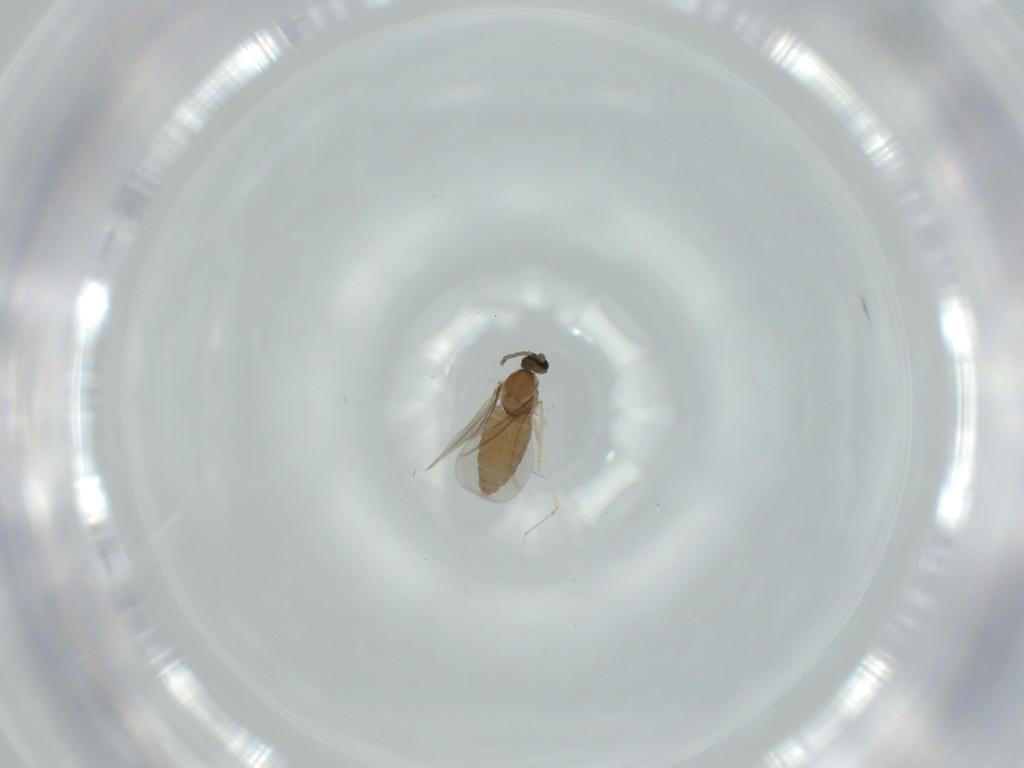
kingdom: Animalia
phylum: Arthropoda
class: Insecta
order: Diptera
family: Cecidomyiidae
